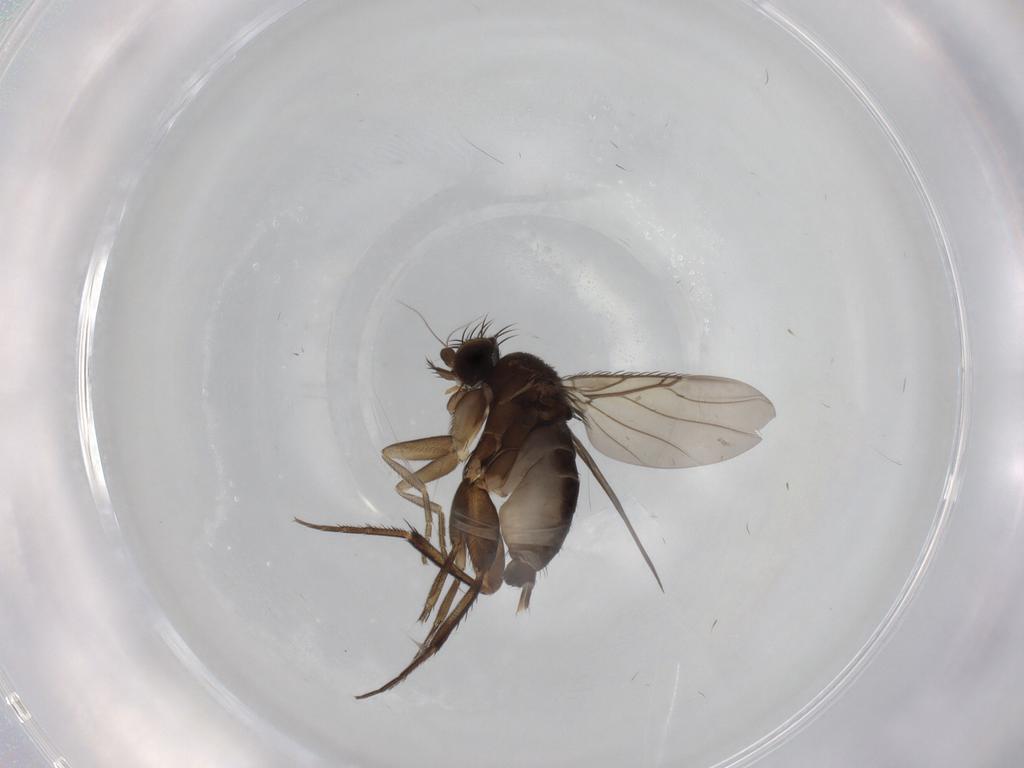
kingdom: Animalia
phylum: Arthropoda
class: Insecta
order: Diptera
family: Phoridae
